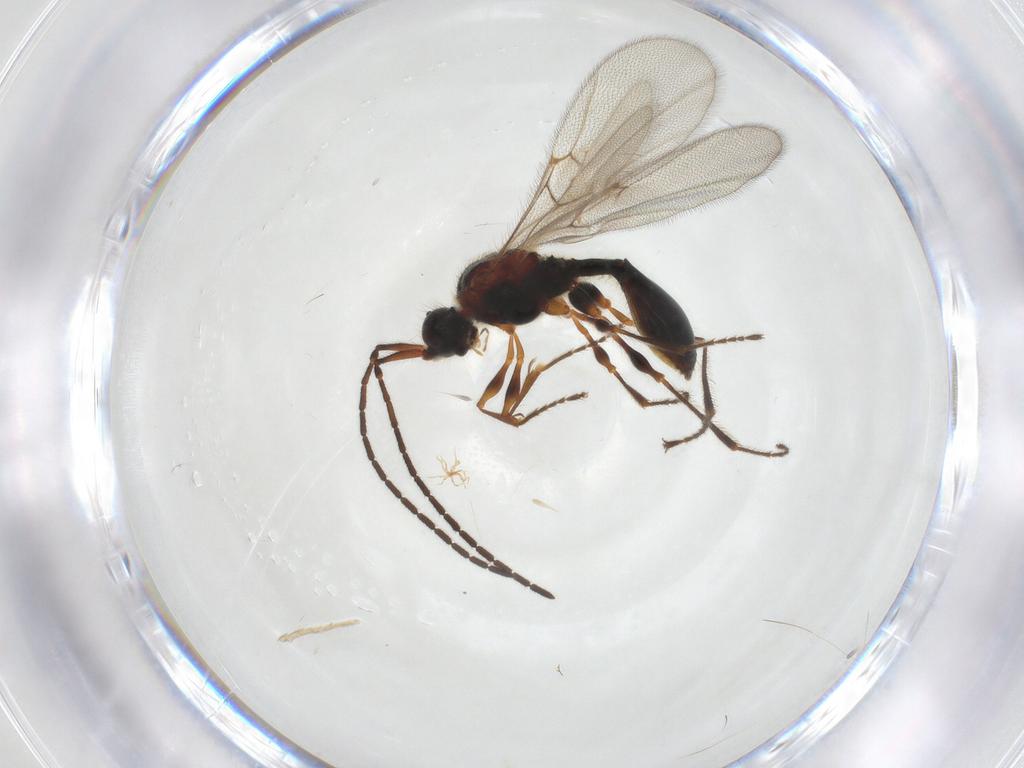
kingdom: Animalia
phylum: Arthropoda
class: Insecta
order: Hymenoptera
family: Diapriidae
